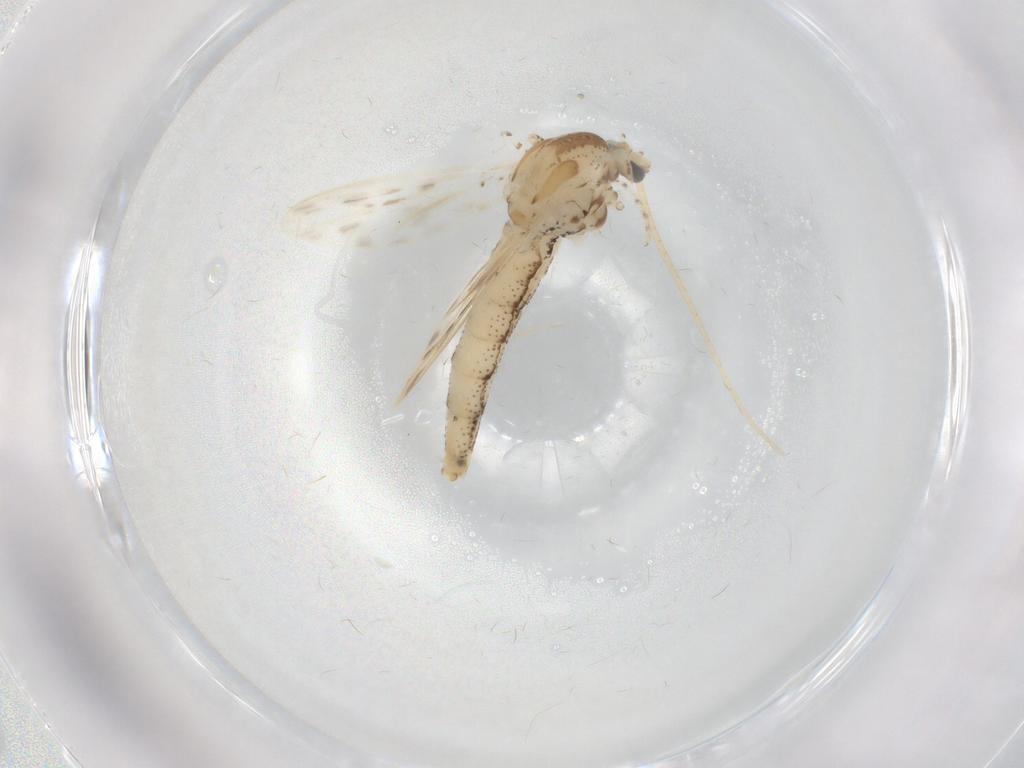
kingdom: Animalia
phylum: Arthropoda
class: Insecta
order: Diptera
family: Chaoboridae
